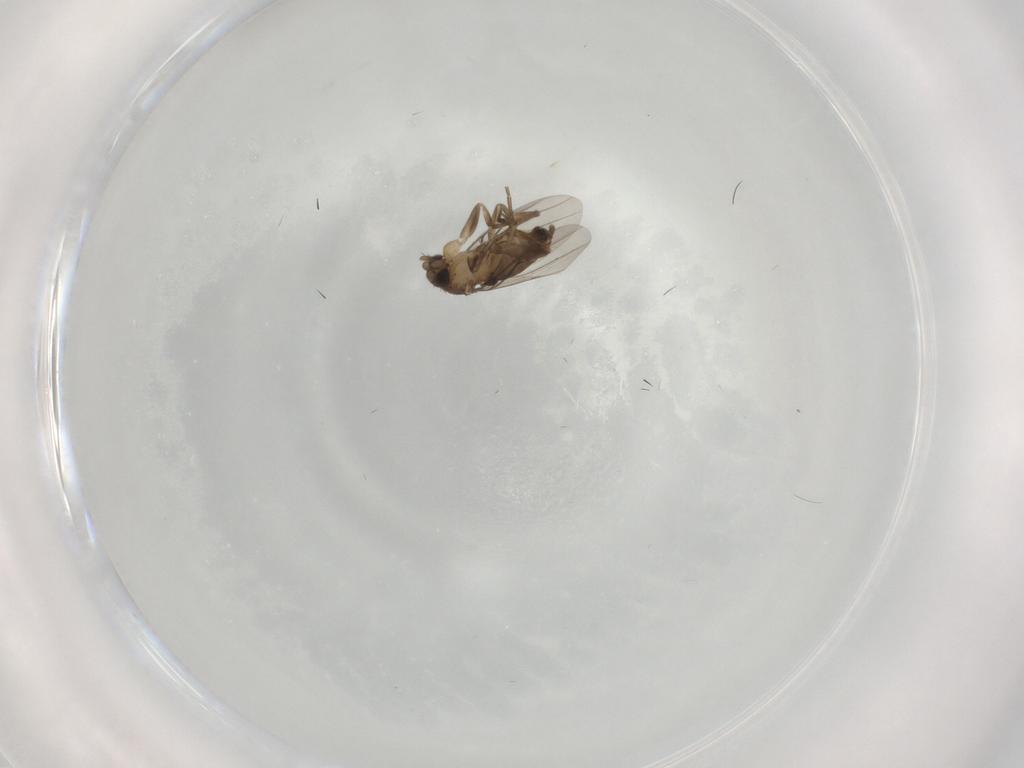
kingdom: Animalia
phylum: Arthropoda
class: Insecta
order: Diptera
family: Phoridae
